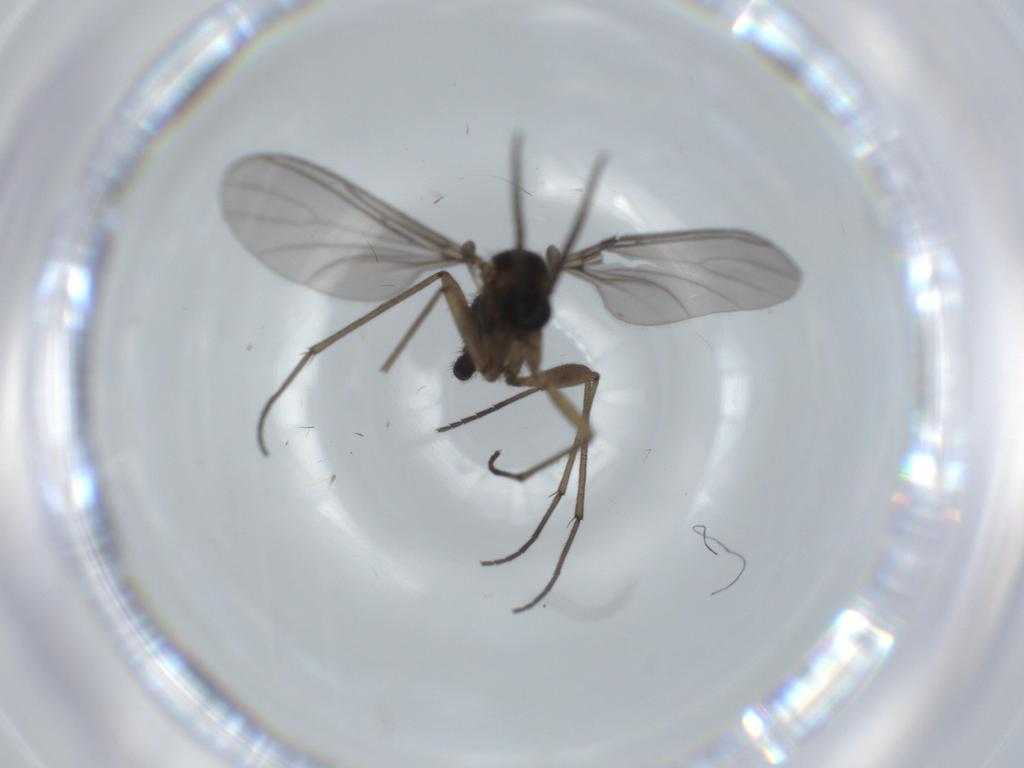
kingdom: Animalia
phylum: Arthropoda
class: Insecta
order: Diptera
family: Sciaridae
